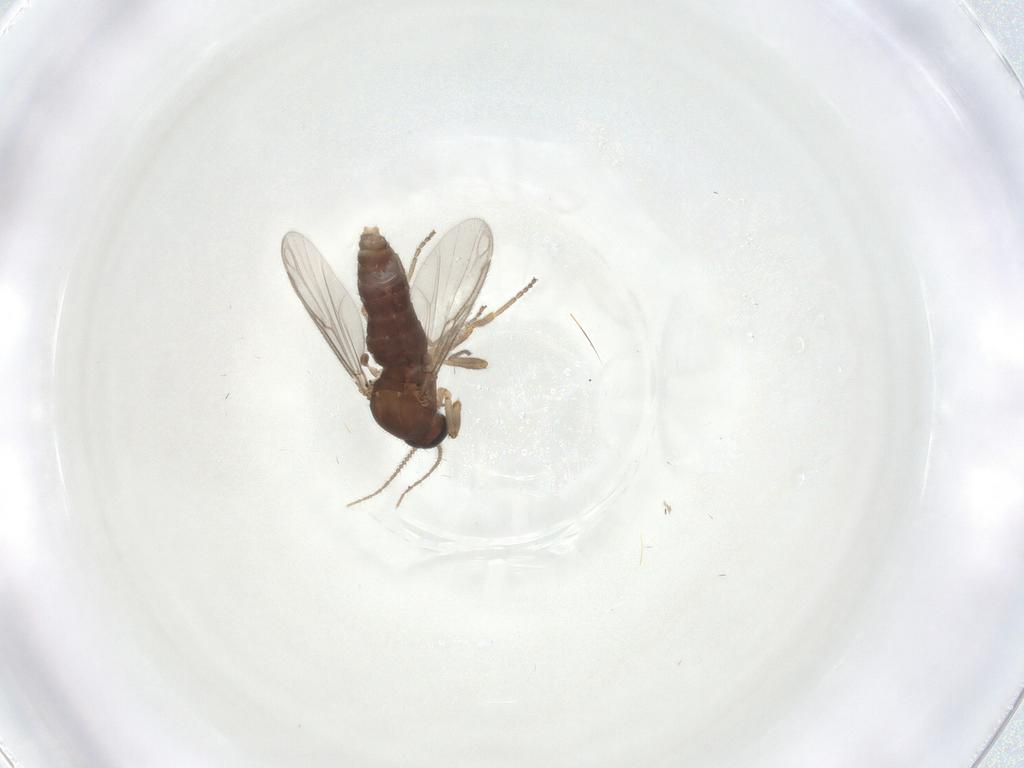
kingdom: Animalia
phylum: Arthropoda
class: Insecta
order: Diptera
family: Ceratopogonidae
